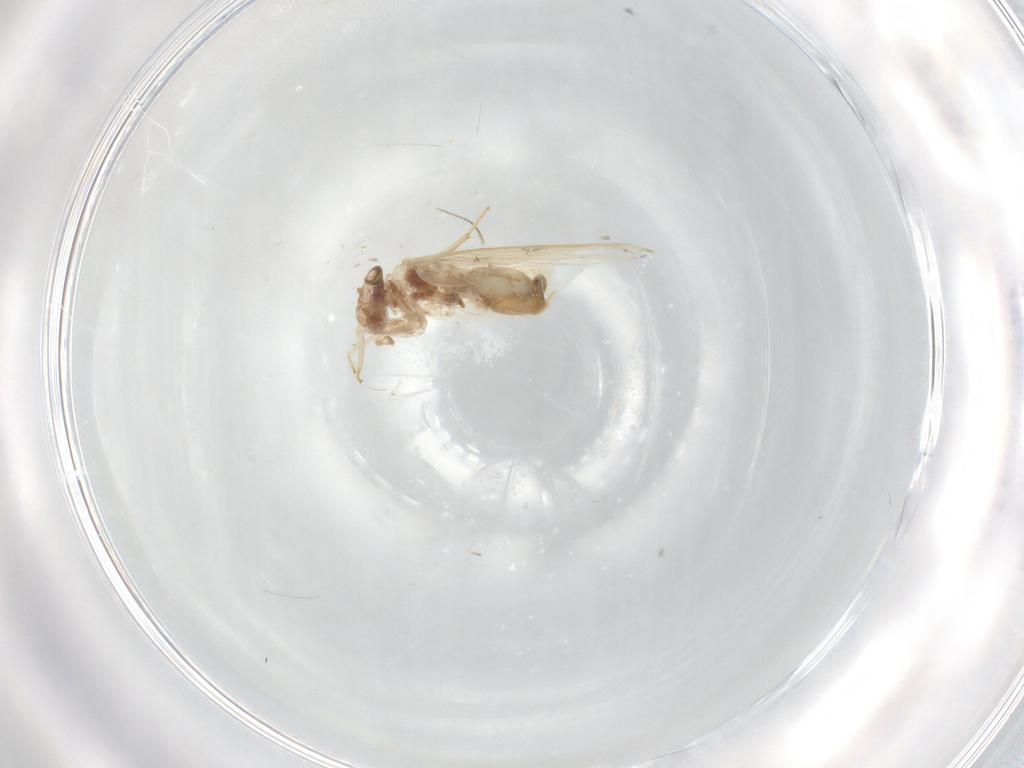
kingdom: Animalia
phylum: Arthropoda
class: Insecta
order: Psocodea
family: Lepidopsocidae
